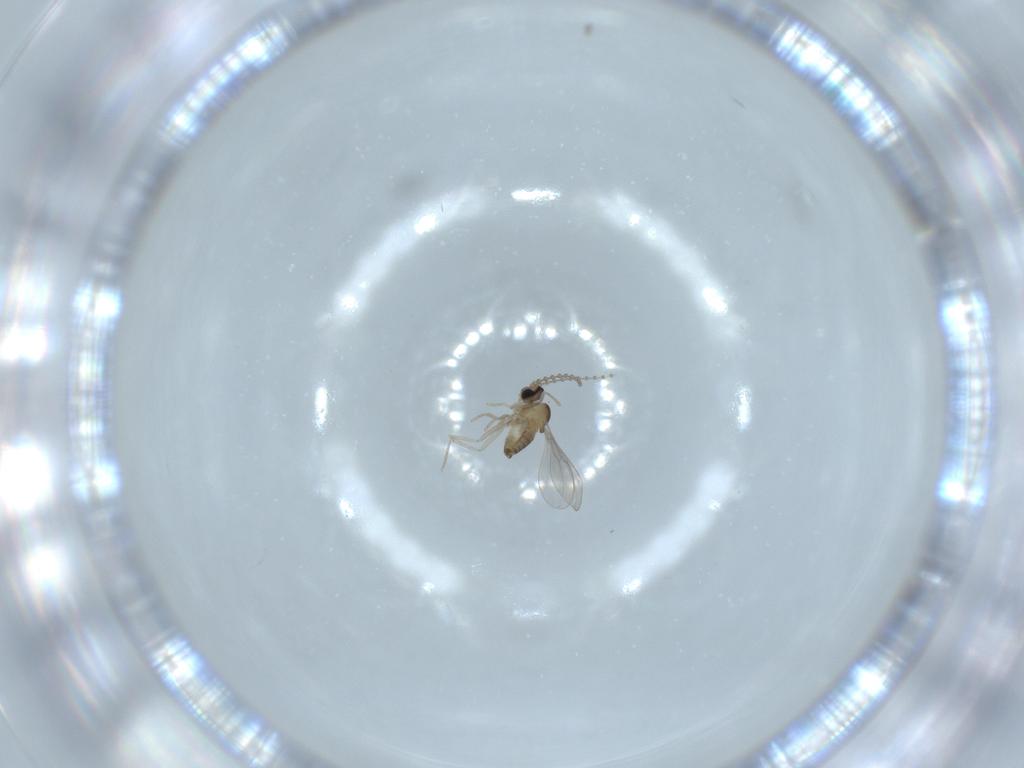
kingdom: Animalia
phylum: Arthropoda
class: Insecta
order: Diptera
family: Cecidomyiidae
